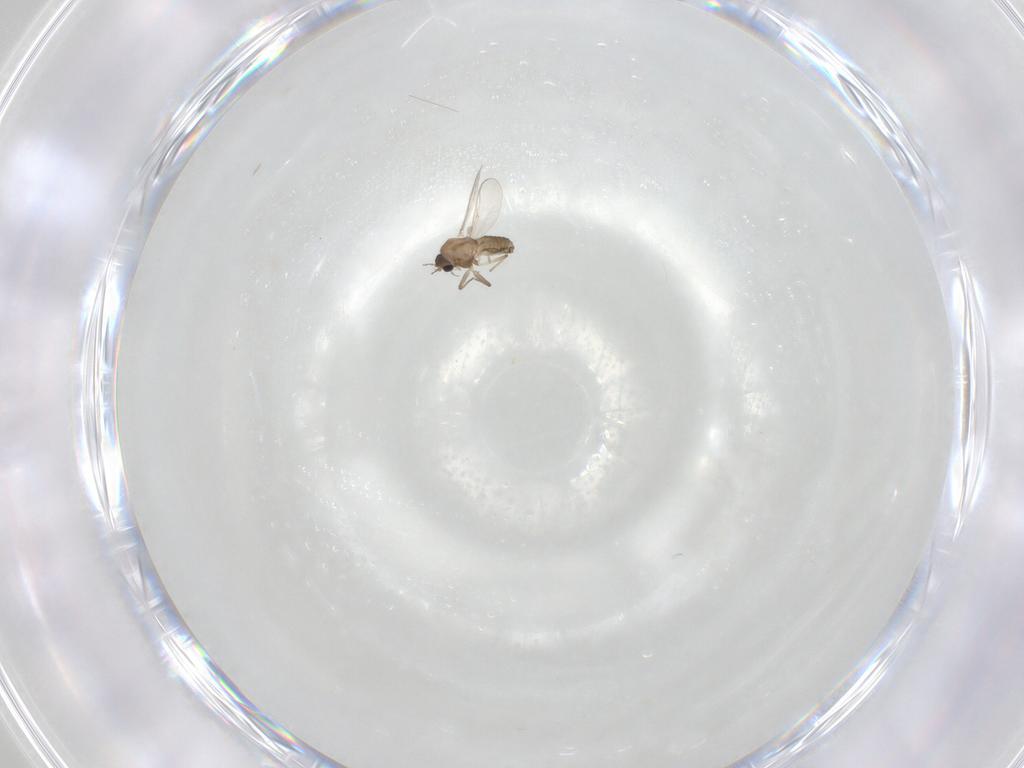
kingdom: Animalia
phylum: Arthropoda
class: Insecta
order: Diptera
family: Chironomidae
